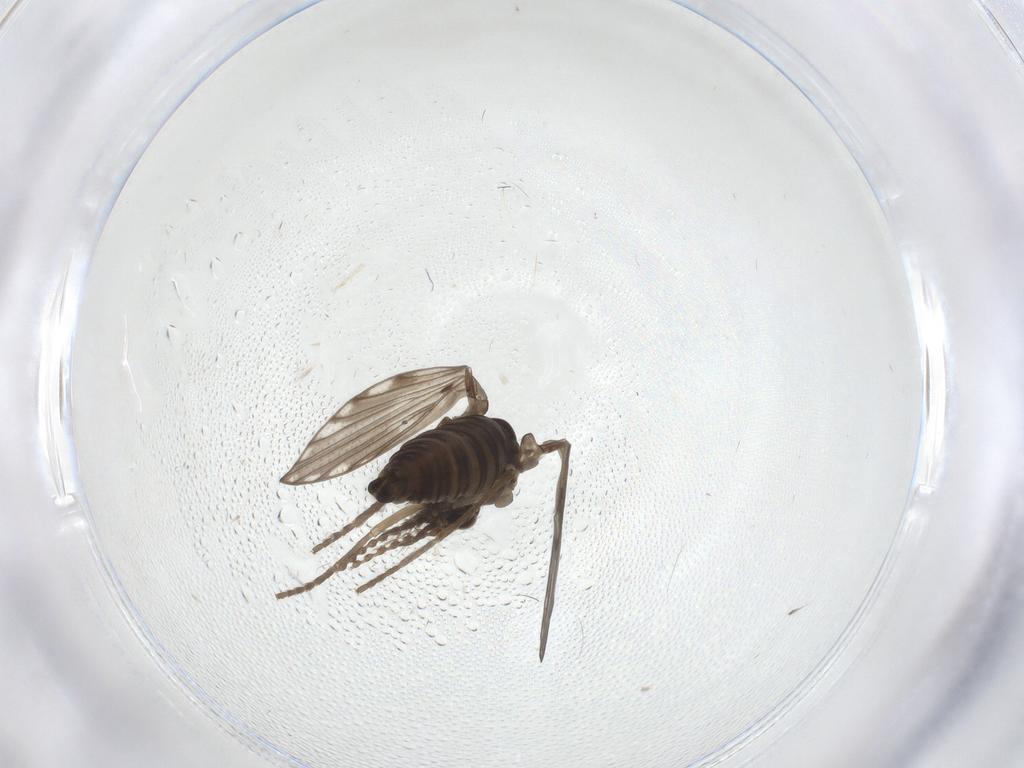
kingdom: Animalia
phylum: Arthropoda
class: Insecta
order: Diptera
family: Psychodidae
